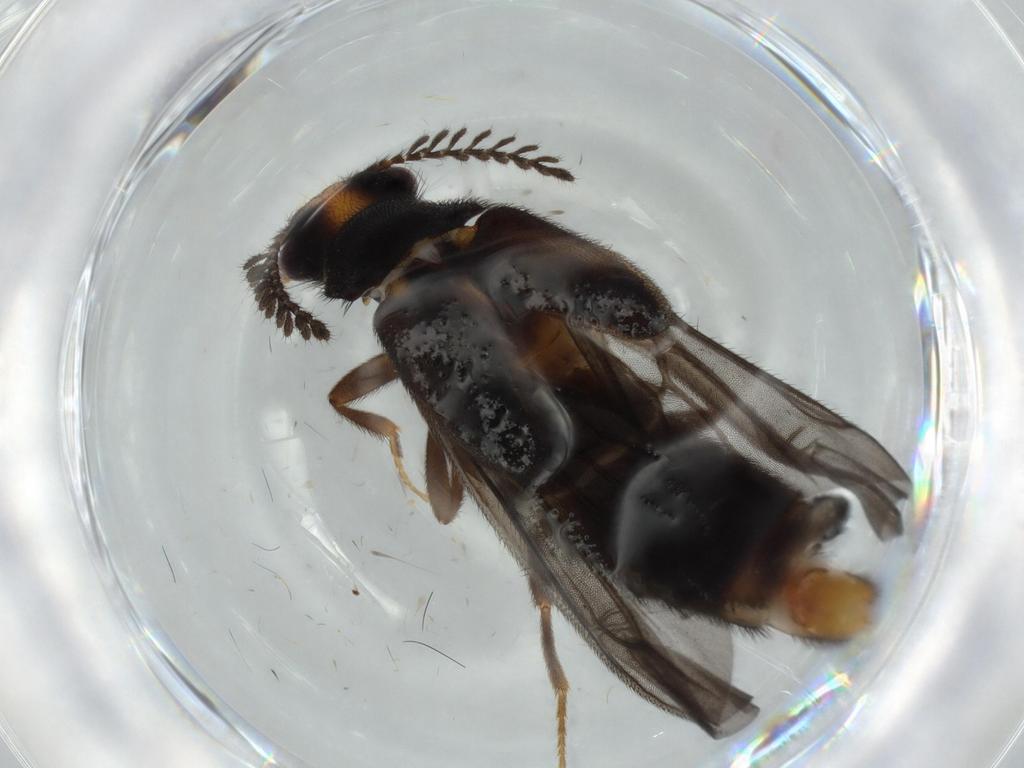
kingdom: Animalia
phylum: Arthropoda
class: Insecta
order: Coleoptera
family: Phengodidae
